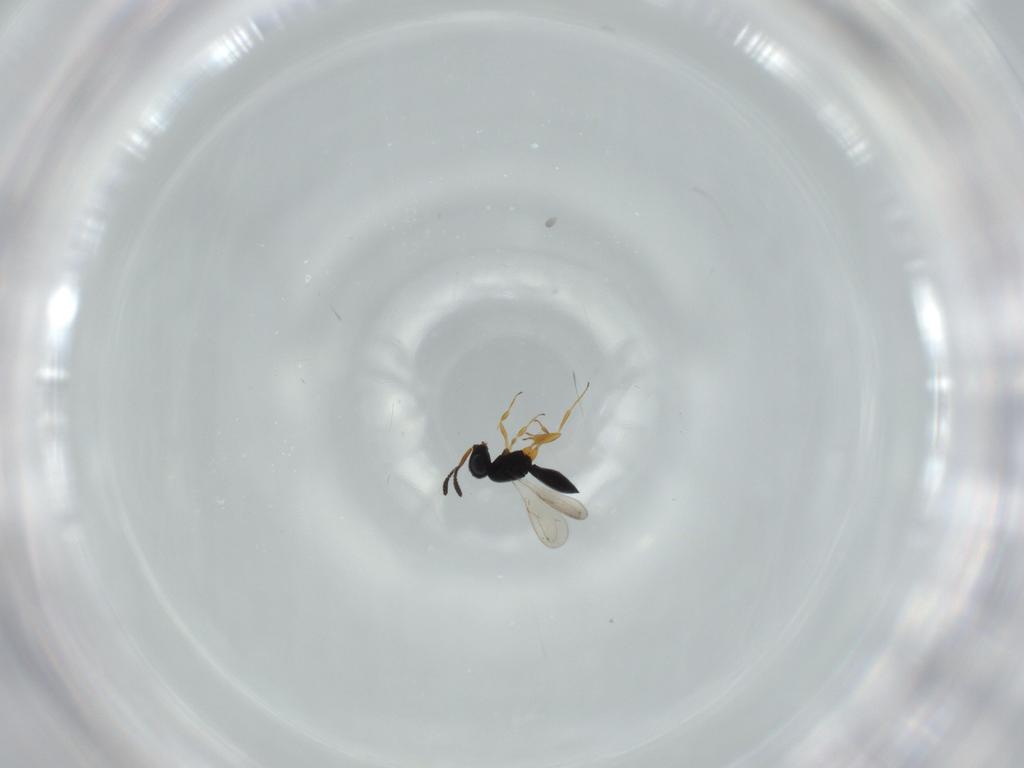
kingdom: Animalia
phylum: Arthropoda
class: Insecta
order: Hymenoptera
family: Scelionidae
